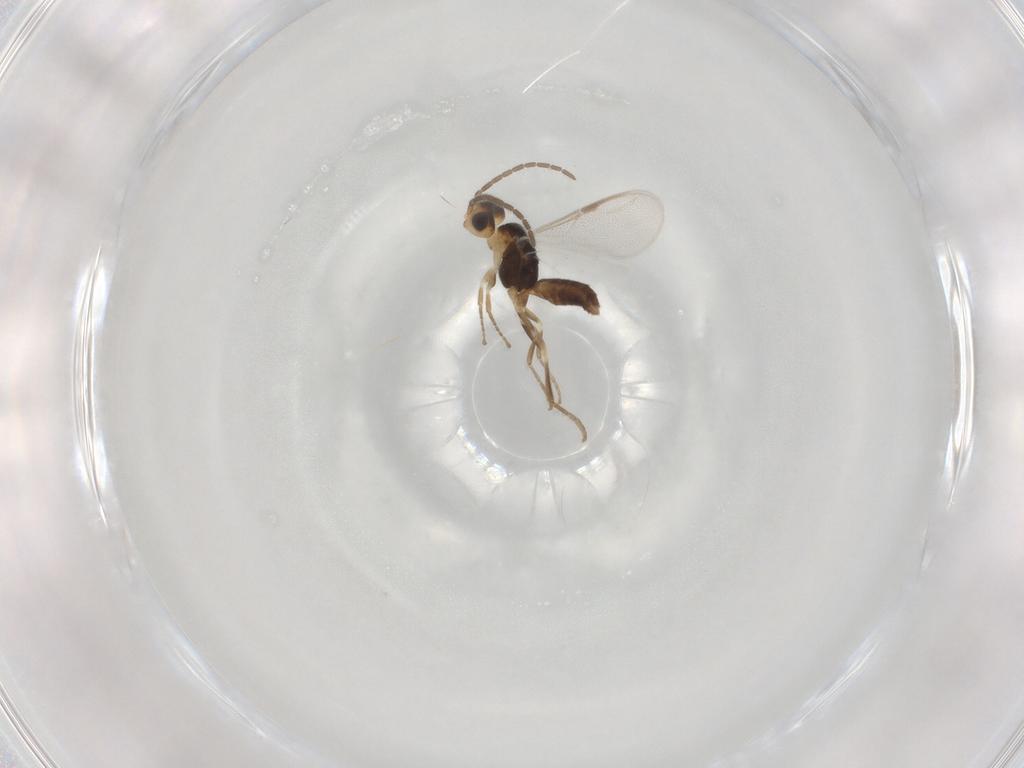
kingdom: Animalia
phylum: Arthropoda
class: Insecta
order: Hymenoptera
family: Dryinidae
